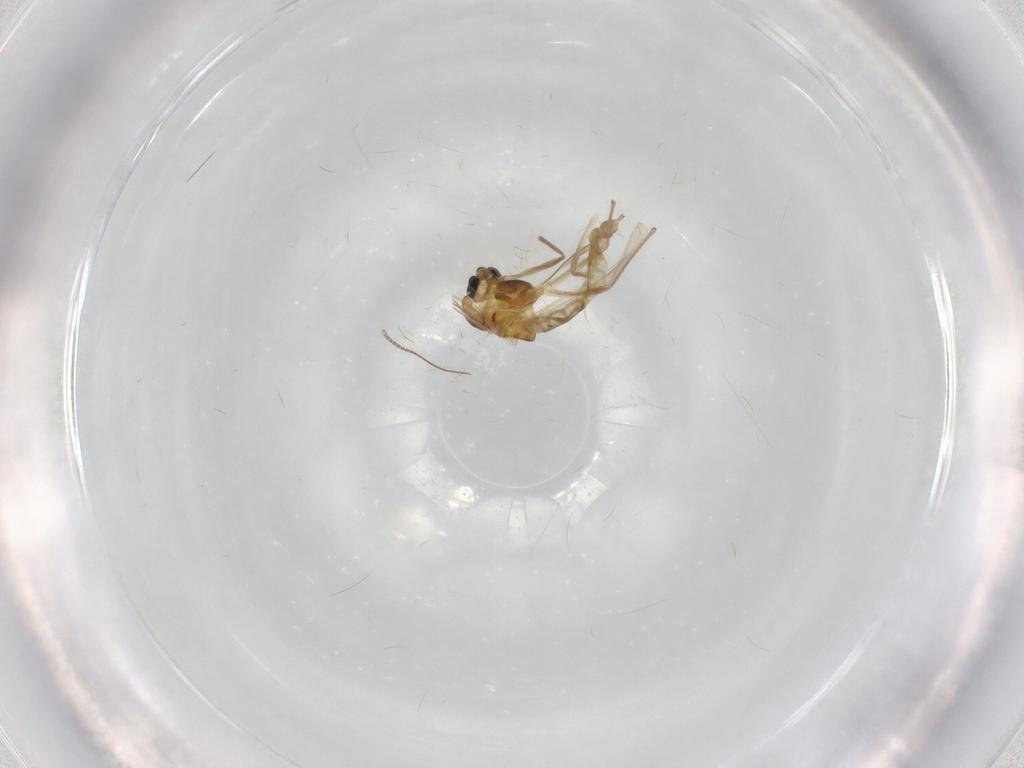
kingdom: Animalia
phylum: Arthropoda
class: Insecta
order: Diptera
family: Chironomidae
